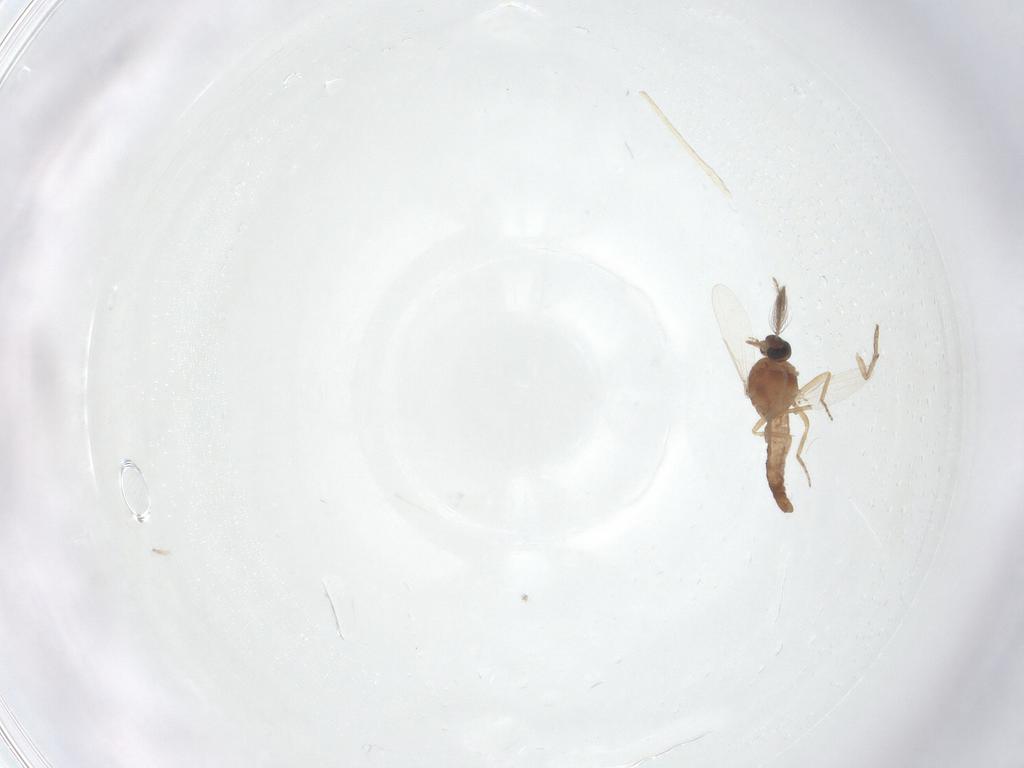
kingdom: Animalia
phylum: Arthropoda
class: Insecta
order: Diptera
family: Ceratopogonidae
